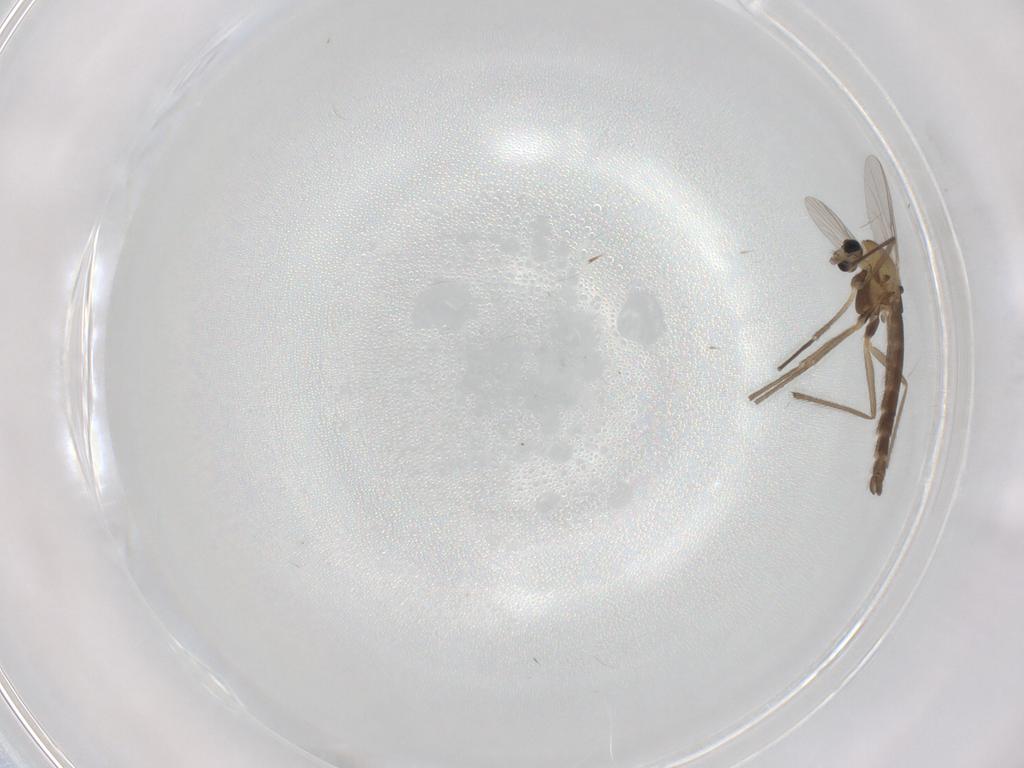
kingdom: Animalia
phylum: Arthropoda
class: Insecta
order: Diptera
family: Chironomidae
